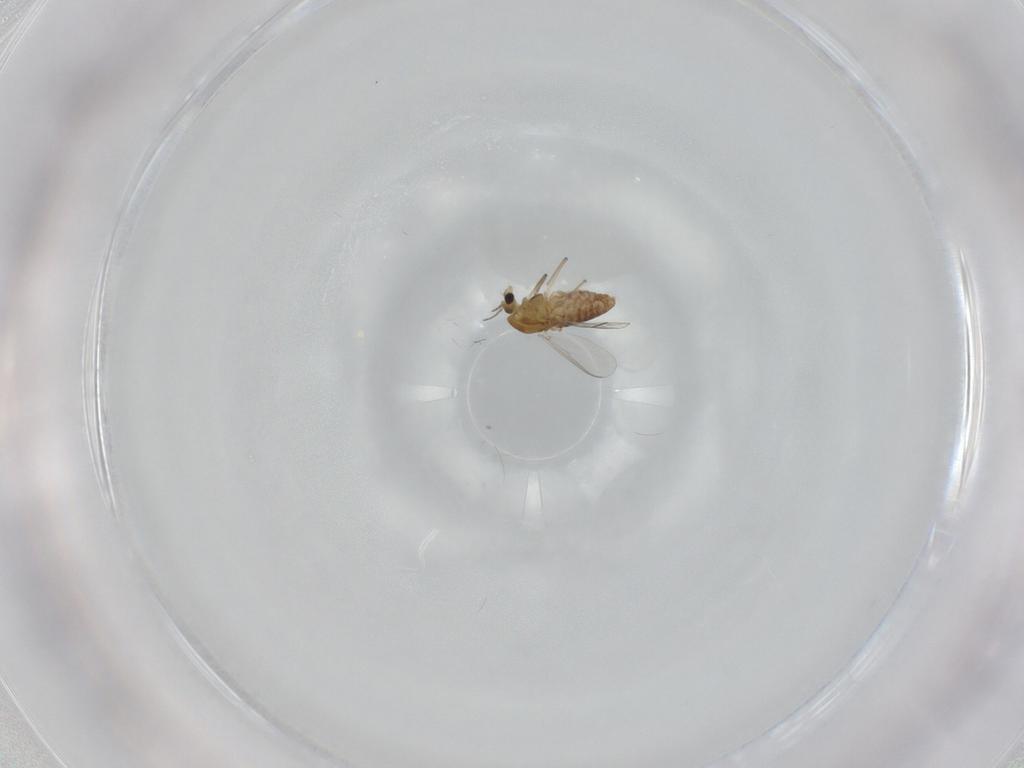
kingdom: Animalia
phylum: Arthropoda
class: Insecta
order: Diptera
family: Chironomidae
